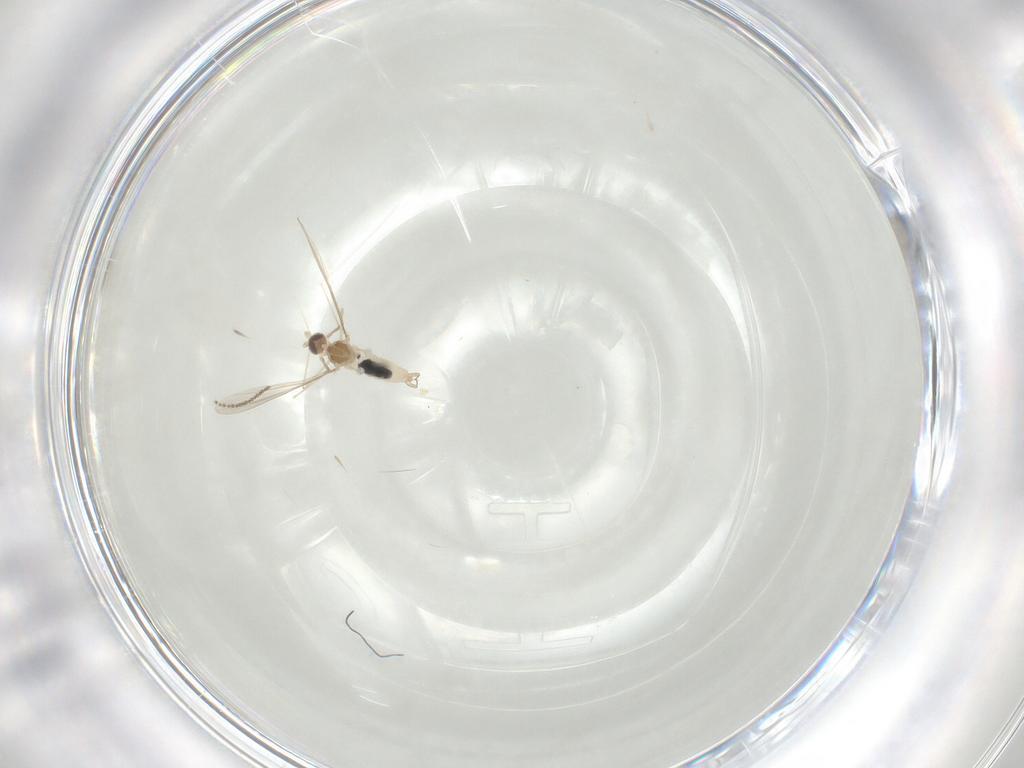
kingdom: Animalia
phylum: Arthropoda
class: Insecta
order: Diptera
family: Cecidomyiidae
